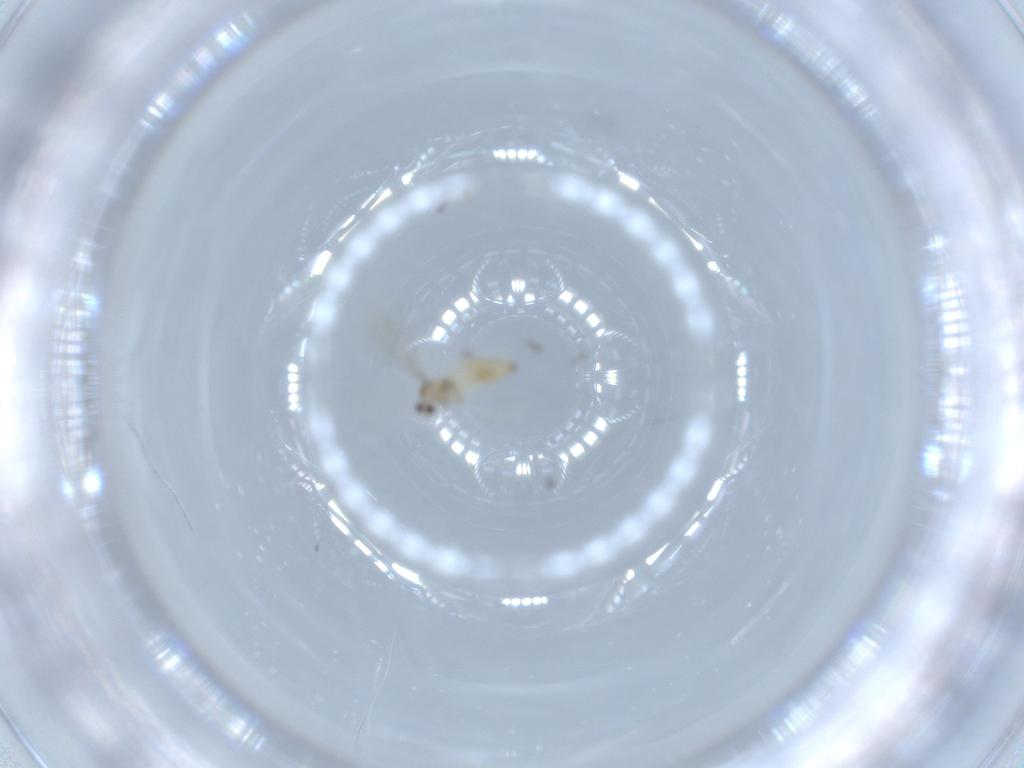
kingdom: Animalia
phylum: Arthropoda
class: Insecta
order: Diptera
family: Cecidomyiidae
